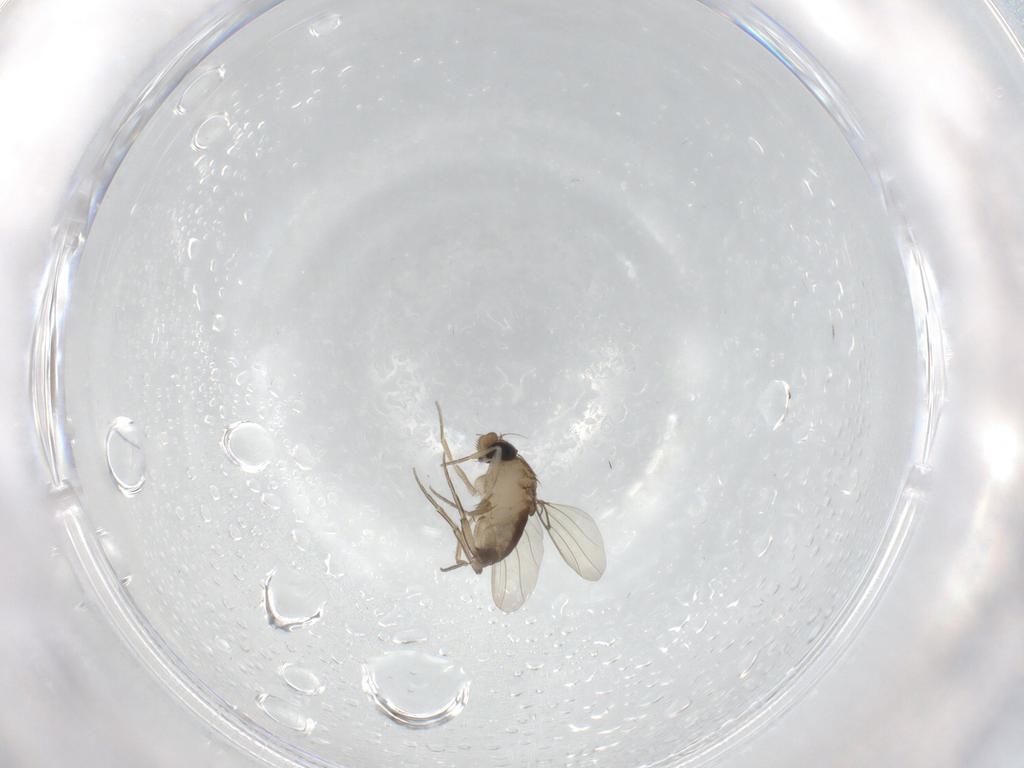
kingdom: Animalia
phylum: Arthropoda
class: Insecta
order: Diptera
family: Phoridae
